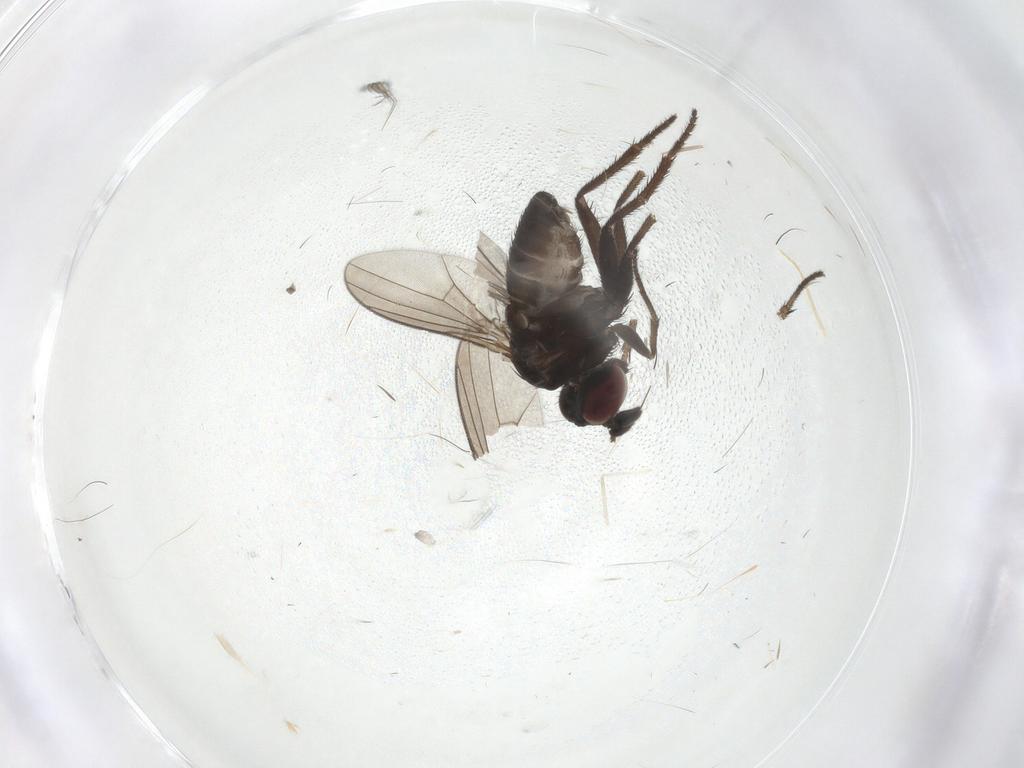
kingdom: Animalia
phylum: Arthropoda
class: Insecta
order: Diptera
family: Dolichopodidae
